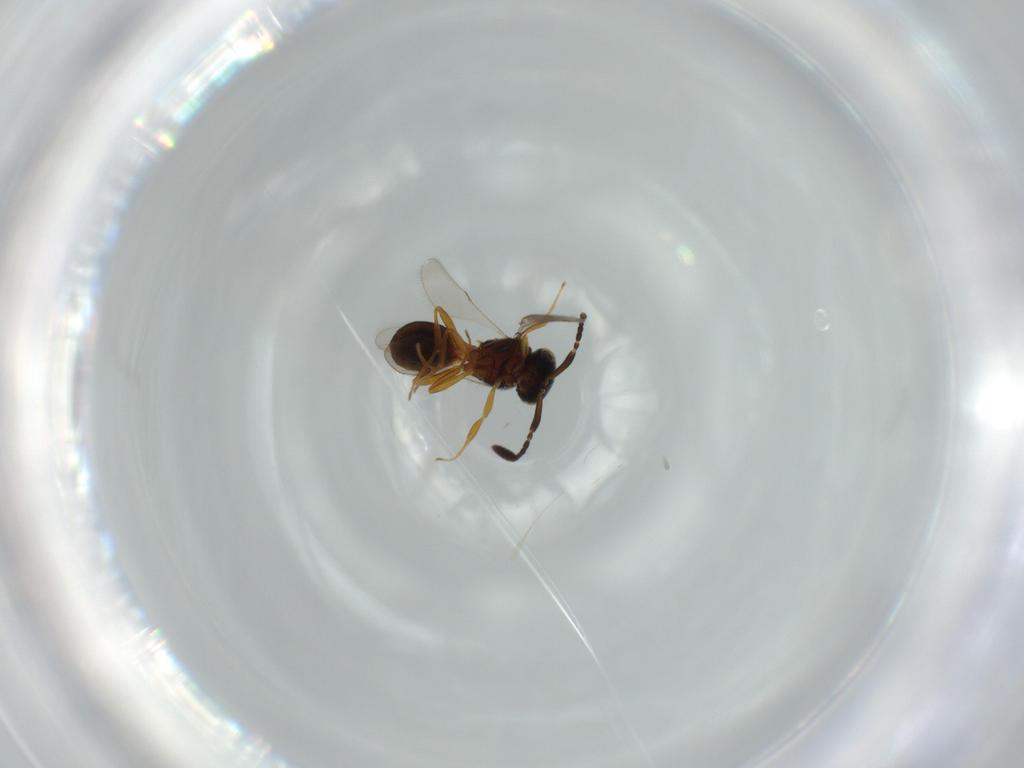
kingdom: Animalia
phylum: Arthropoda
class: Insecta
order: Hymenoptera
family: Scelionidae
